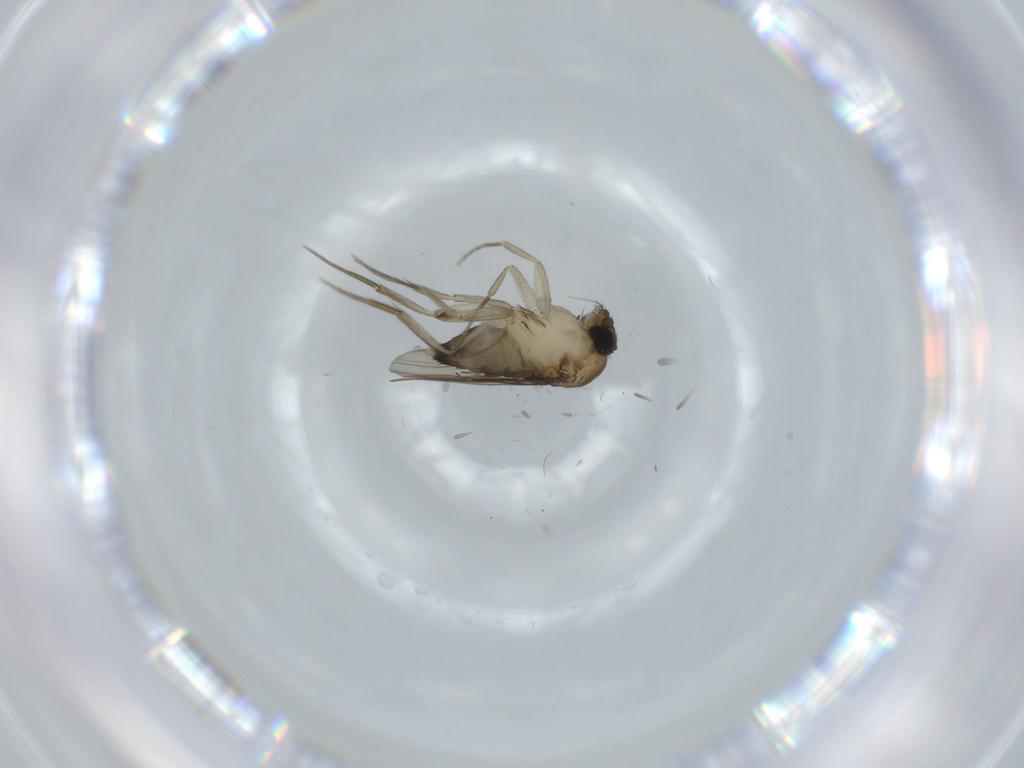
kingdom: Animalia
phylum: Arthropoda
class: Insecta
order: Diptera
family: Phoridae
